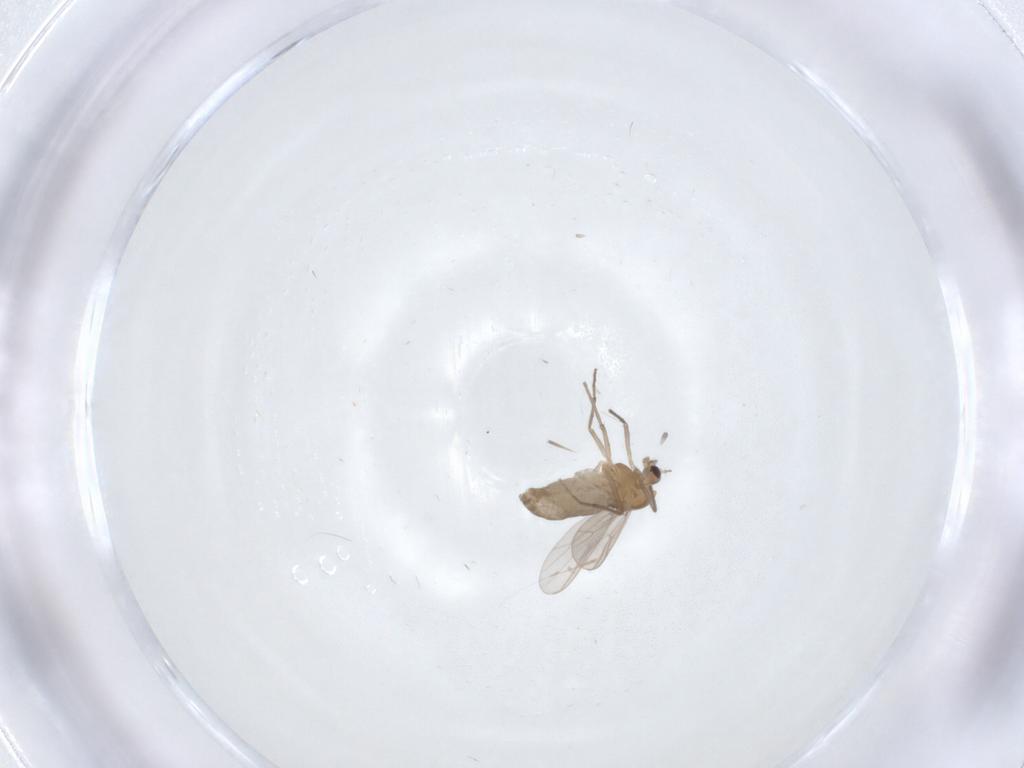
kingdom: Animalia
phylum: Arthropoda
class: Insecta
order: Diptera
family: Chironomidae
